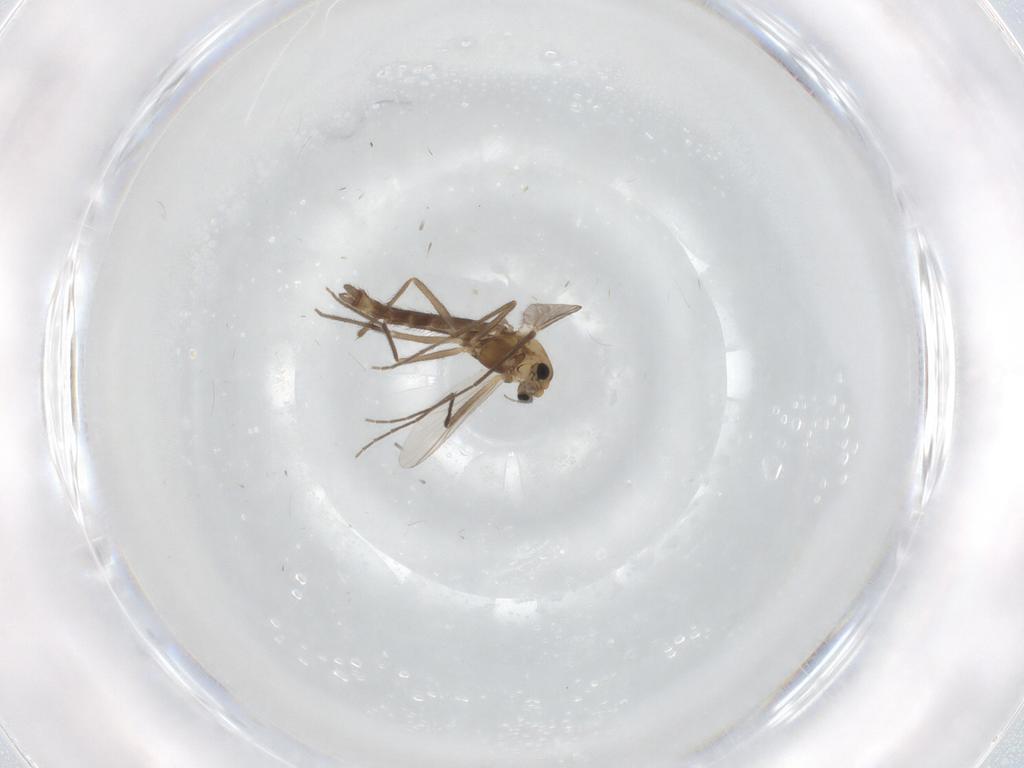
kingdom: Animalia
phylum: Arthropoda
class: Insecta
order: Diptera
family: Chironomidae
